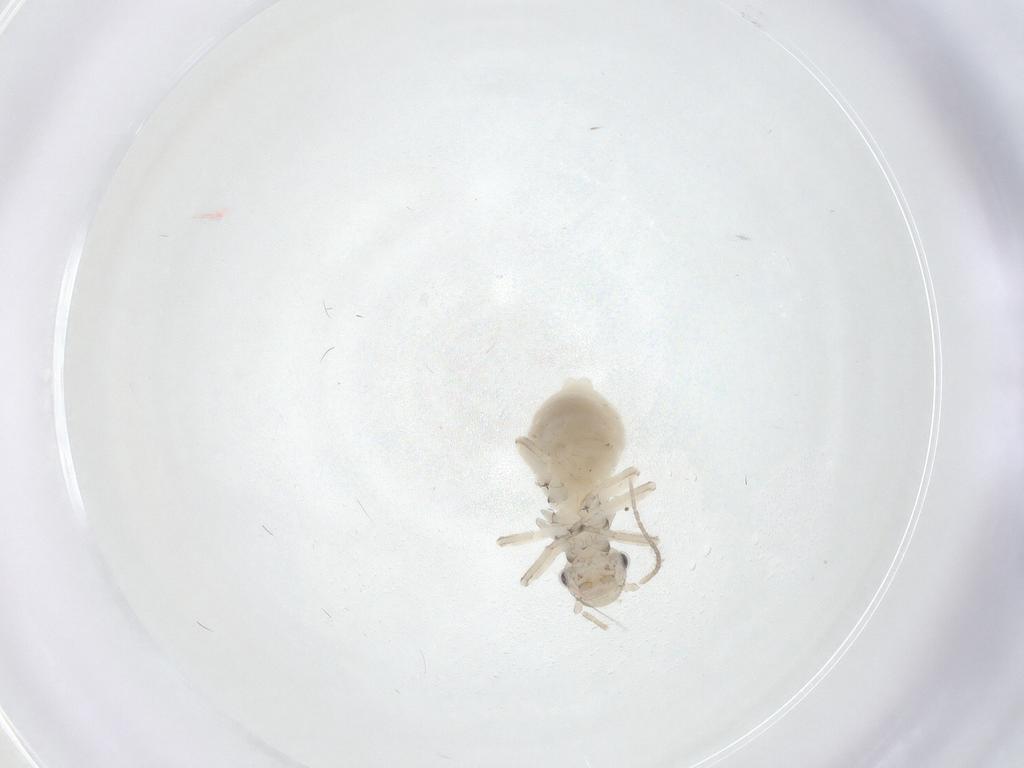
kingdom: Animalia
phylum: Arthropoda
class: Insecta
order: Psocodea
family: Amphipsocidae
